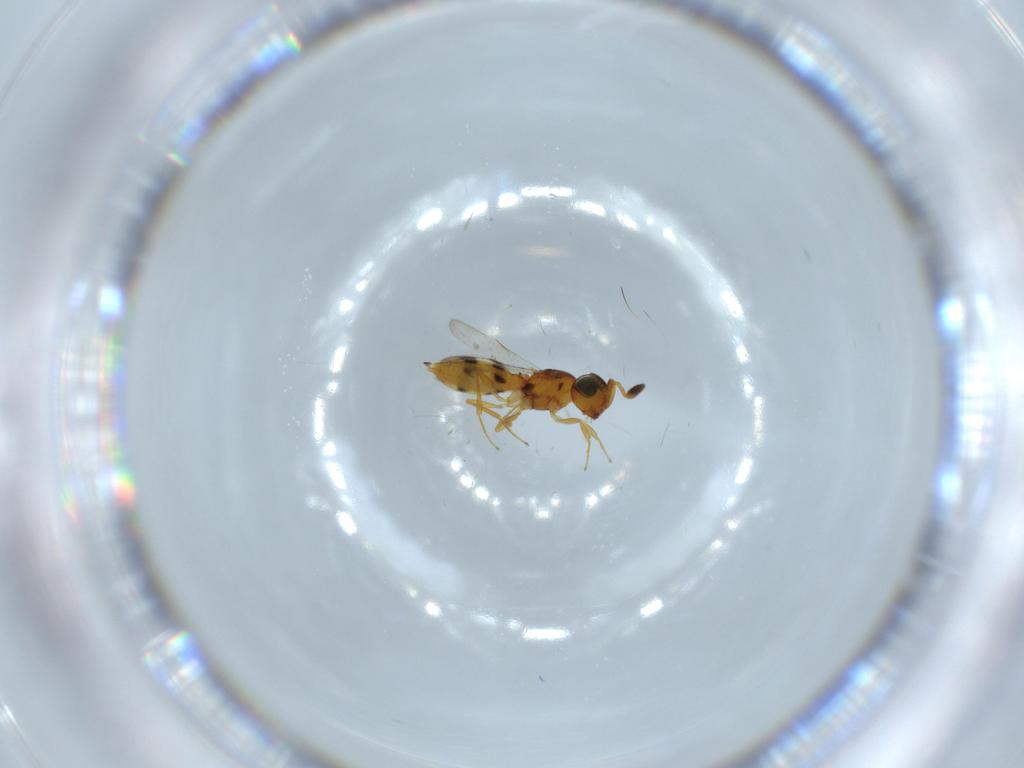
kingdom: Animalia
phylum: Arthropoda
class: Insecta
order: Hymenoptera
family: Scelionidae
